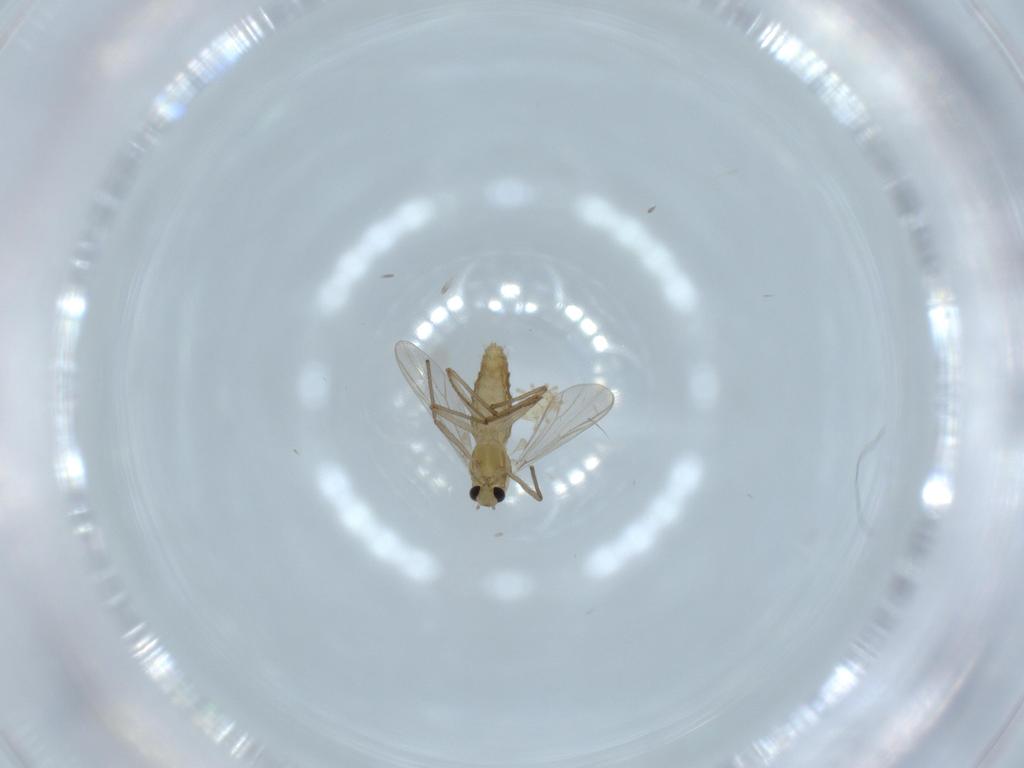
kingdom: Animalia
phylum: Arthropoda
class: Insecta
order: Diptera
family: Chironomidae
